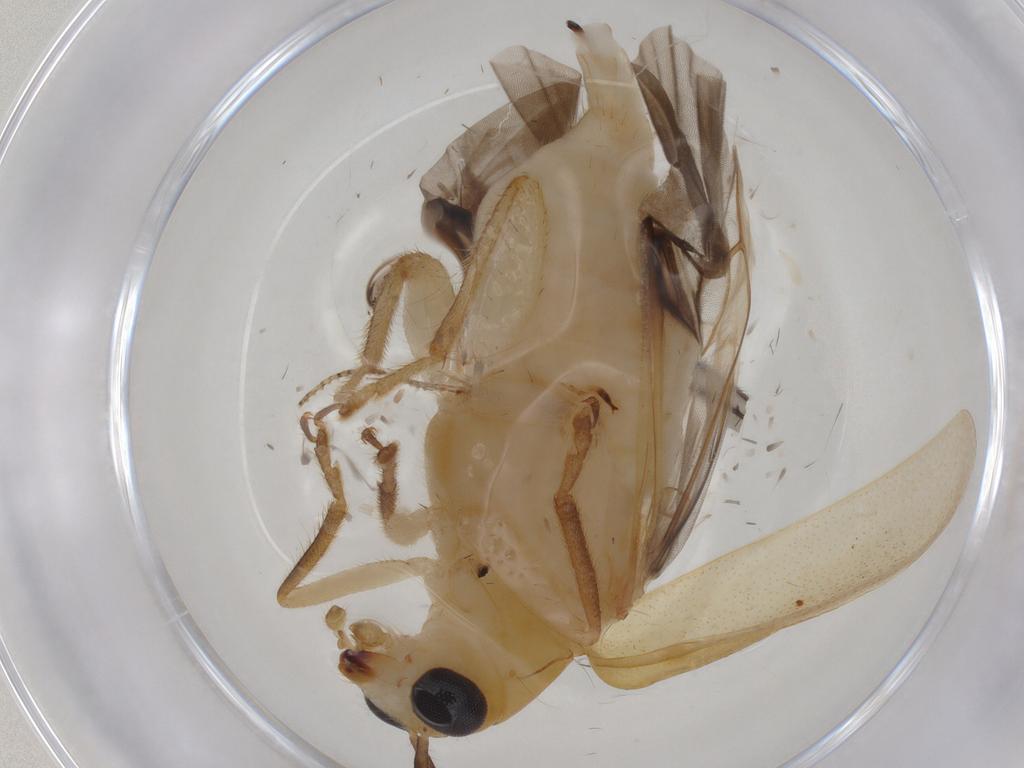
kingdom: Animalia
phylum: Arthropoda
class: Insecta
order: Coleoptera
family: Chrysomelidae
